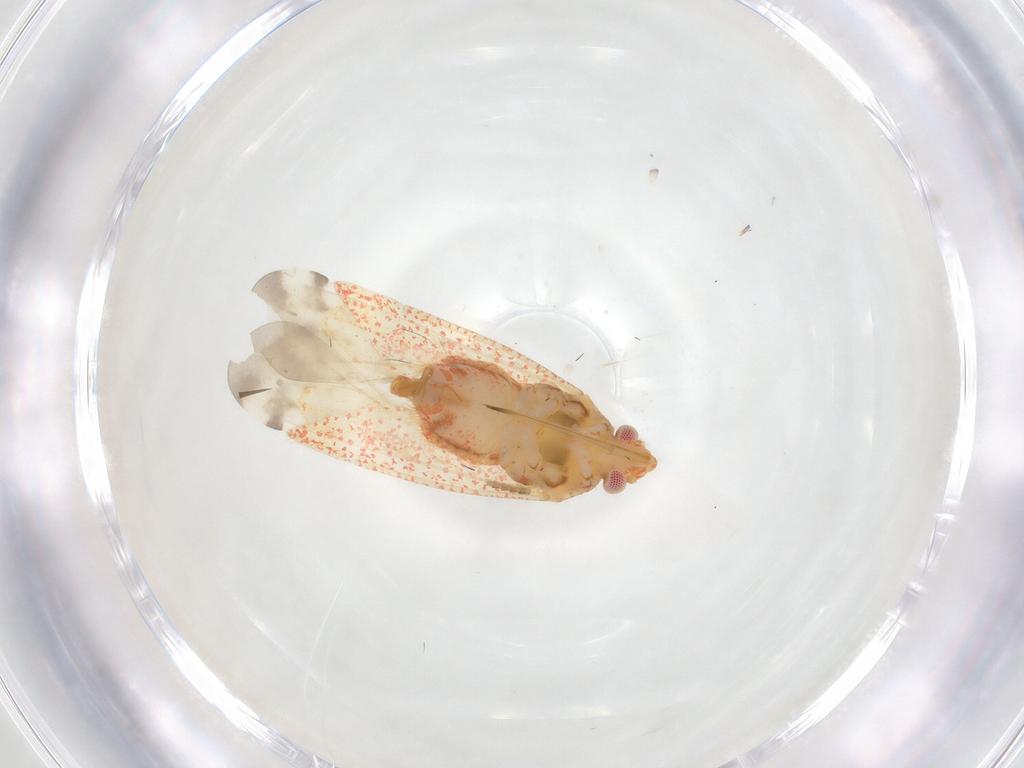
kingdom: Animalia
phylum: Arthropoda
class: Insecta
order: Hemiptera
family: Miridae
